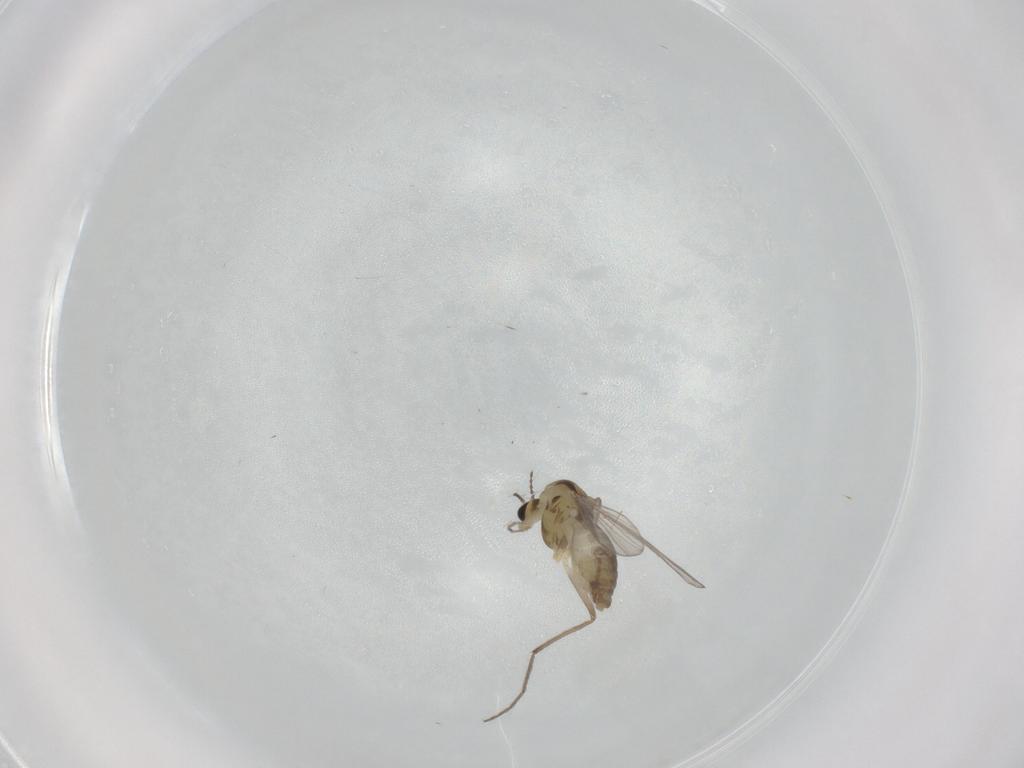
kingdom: Animalia
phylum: Arthropoda
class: Insecta
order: Diptera
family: Chironomidae
